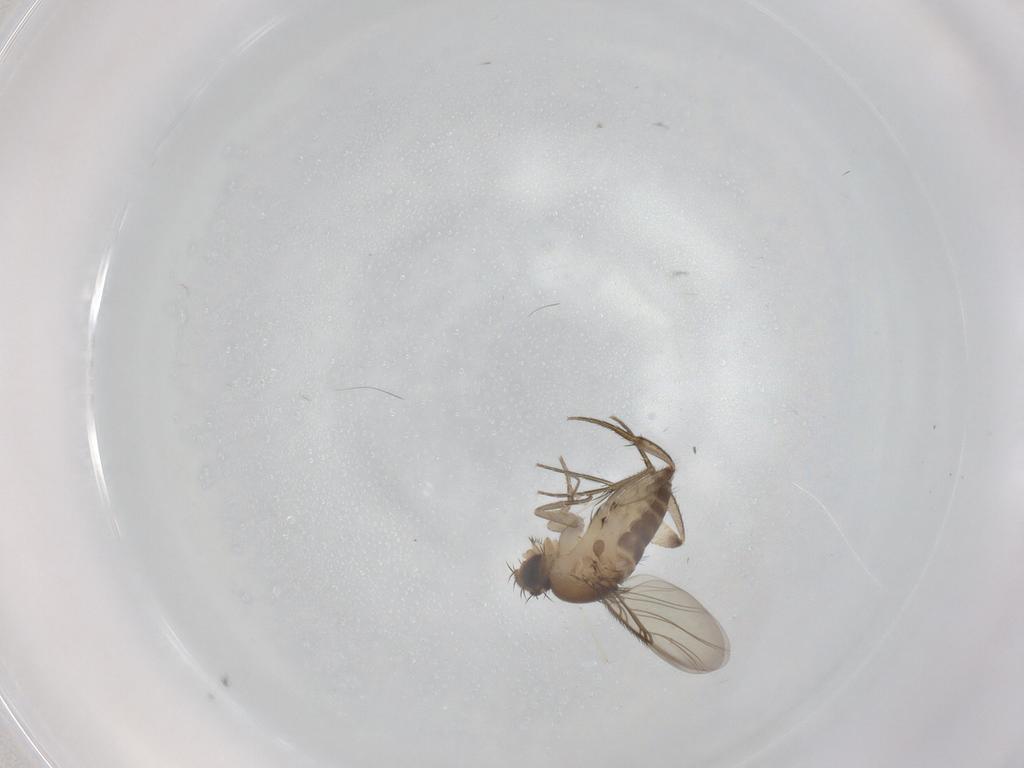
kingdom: Animalia
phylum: Arthropoda
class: Insecta
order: Diptera
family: Phoridae
